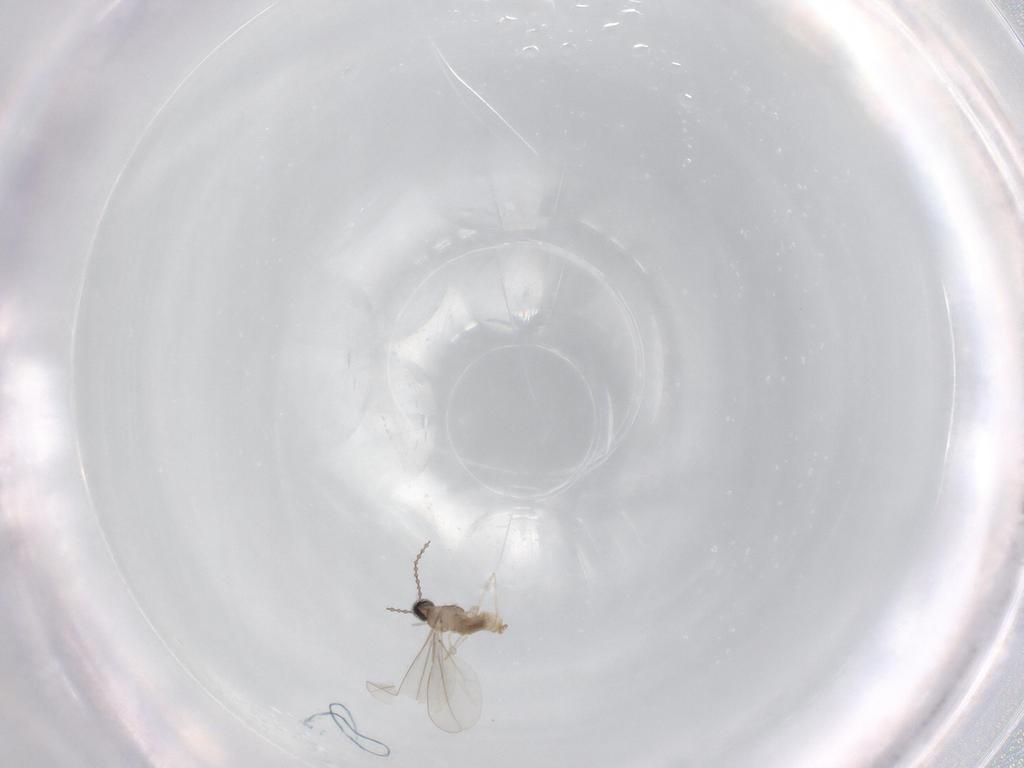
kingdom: Animalia
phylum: Arthropoda
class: Insecta
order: Diptera
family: Cecidomyiidae
